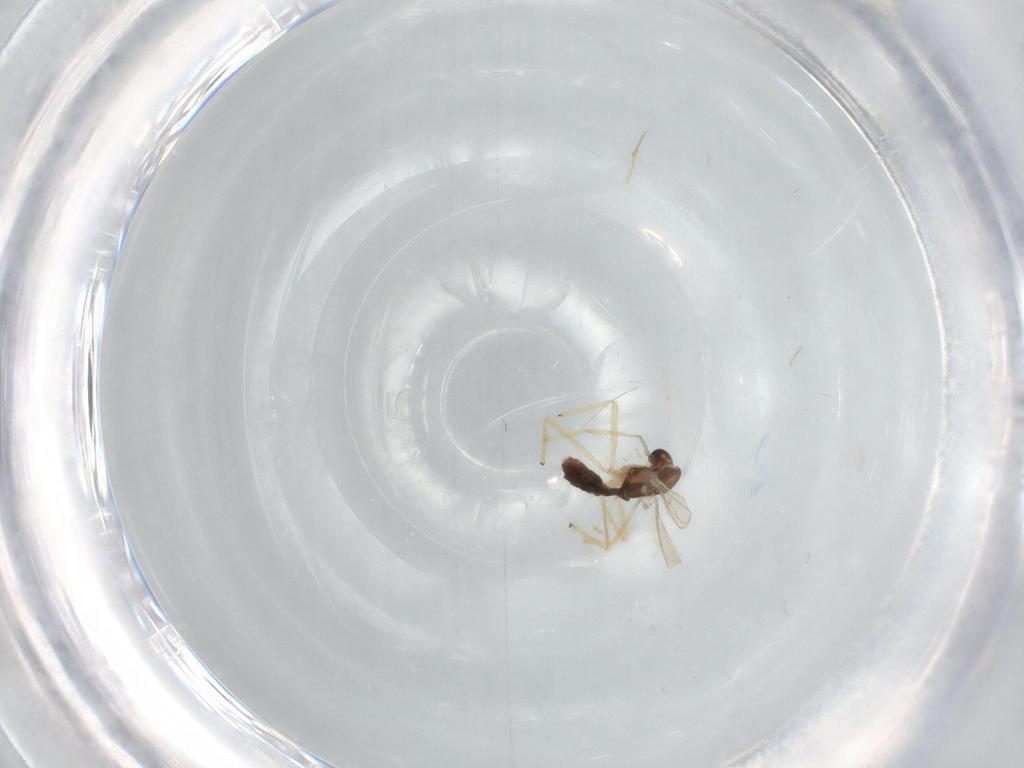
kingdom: Animalia
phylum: Arthropoda
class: Insecta
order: Diptera
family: Chironomidae
